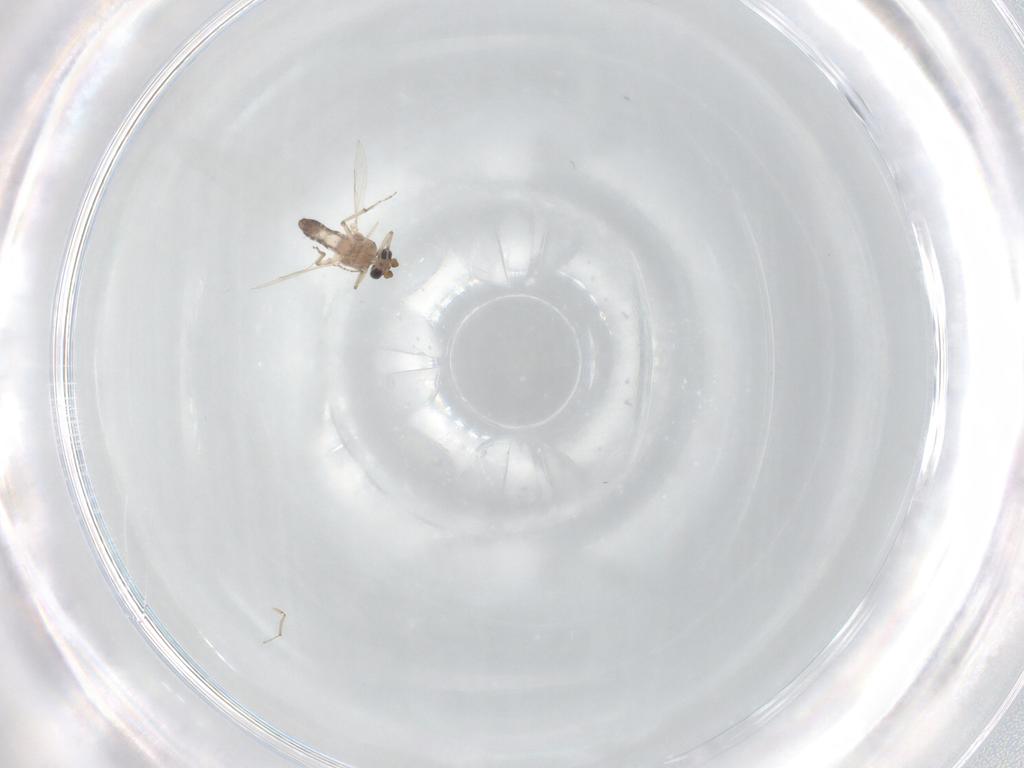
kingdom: Animalia
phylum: Arthropoda
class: Insecta
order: Diptera
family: Ceratopogonidae
